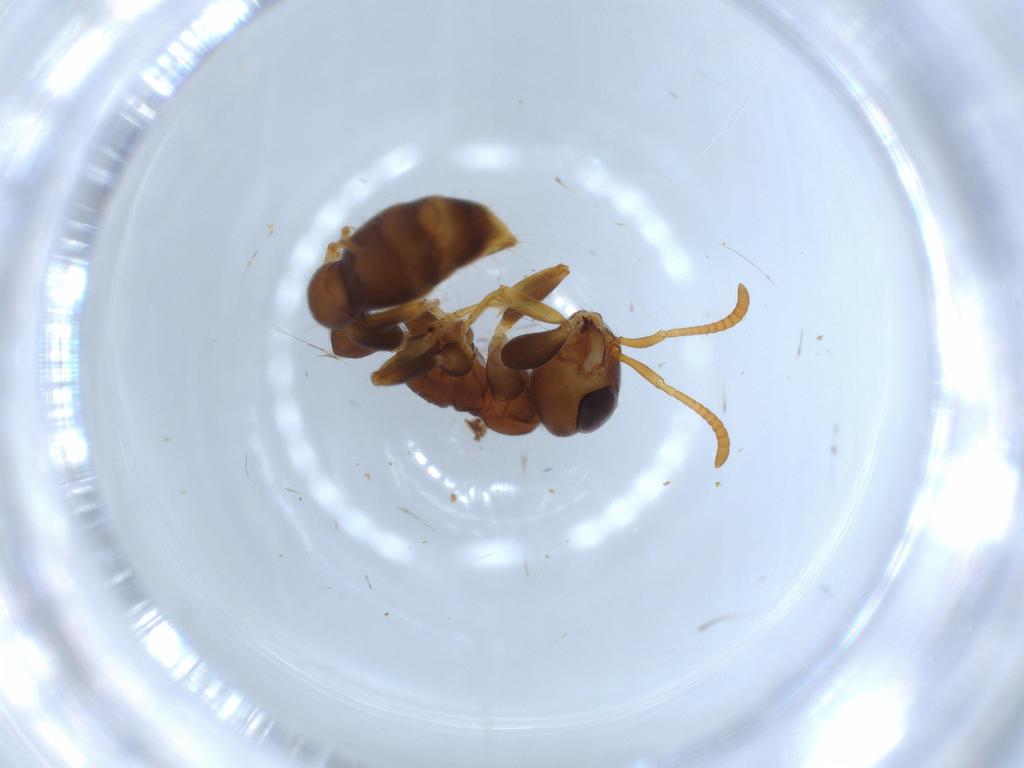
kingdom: Animalia
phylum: Arthropoda
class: Insecta
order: Hymenoptera
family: Formicidae
